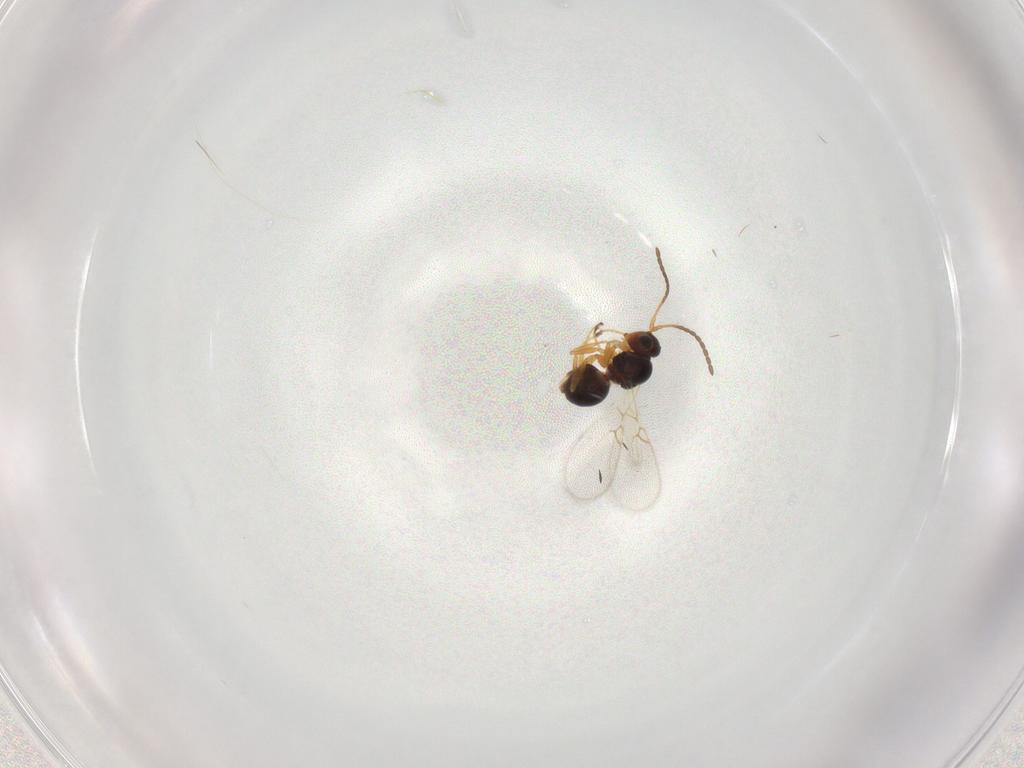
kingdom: Animalia
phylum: Arthropoda
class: Insecta
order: Hymenoptera
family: Figitidae
